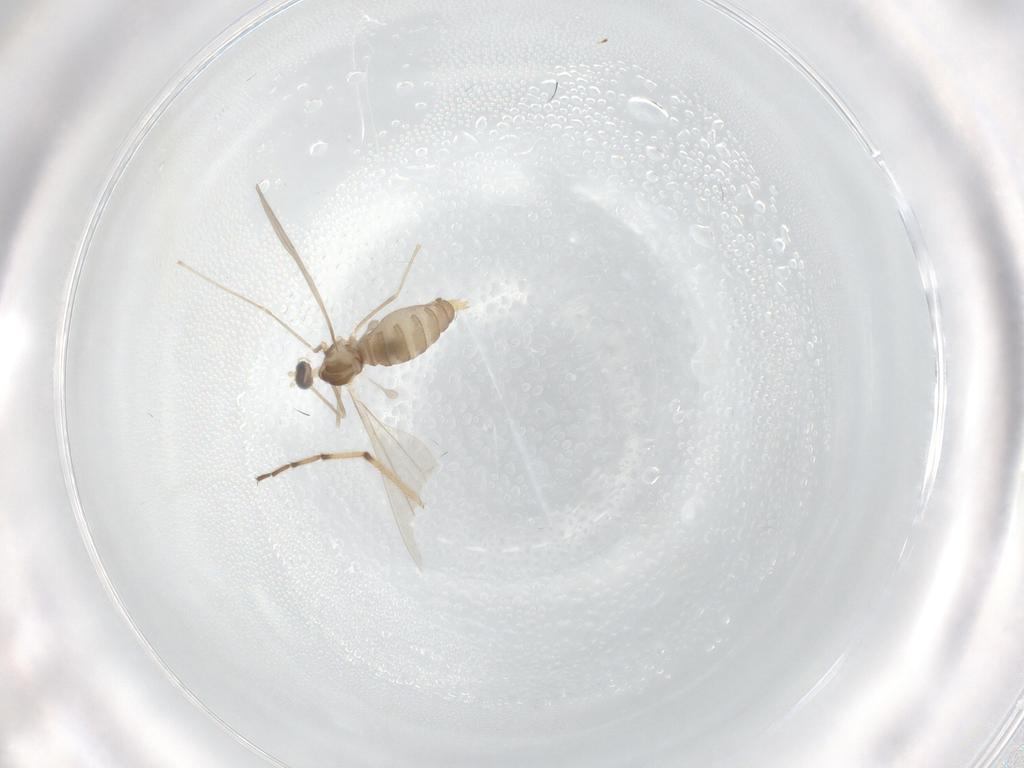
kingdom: Animalia
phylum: Arthropoda
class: Insecta
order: Diptera
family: Cecidomyiidae
